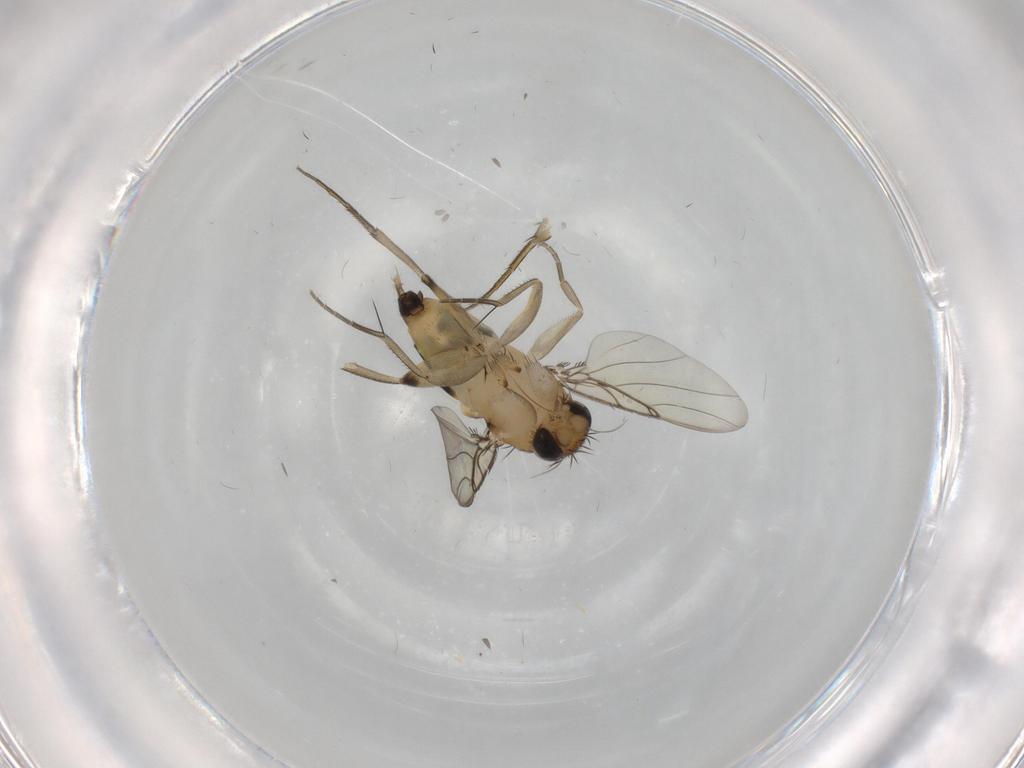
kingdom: Animalia
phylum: Arthropoda
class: Insecta
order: Diptera
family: Phoridae
